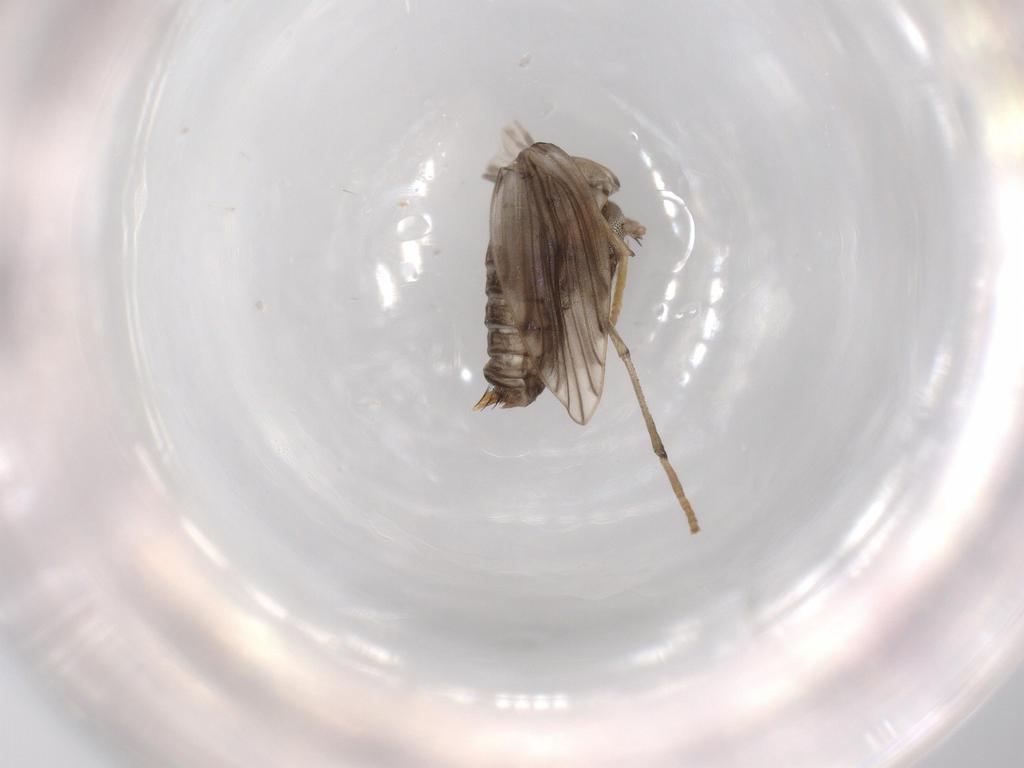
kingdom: Animalia
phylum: Arthropoda
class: Insecta
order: Diptera
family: Psychodidae
